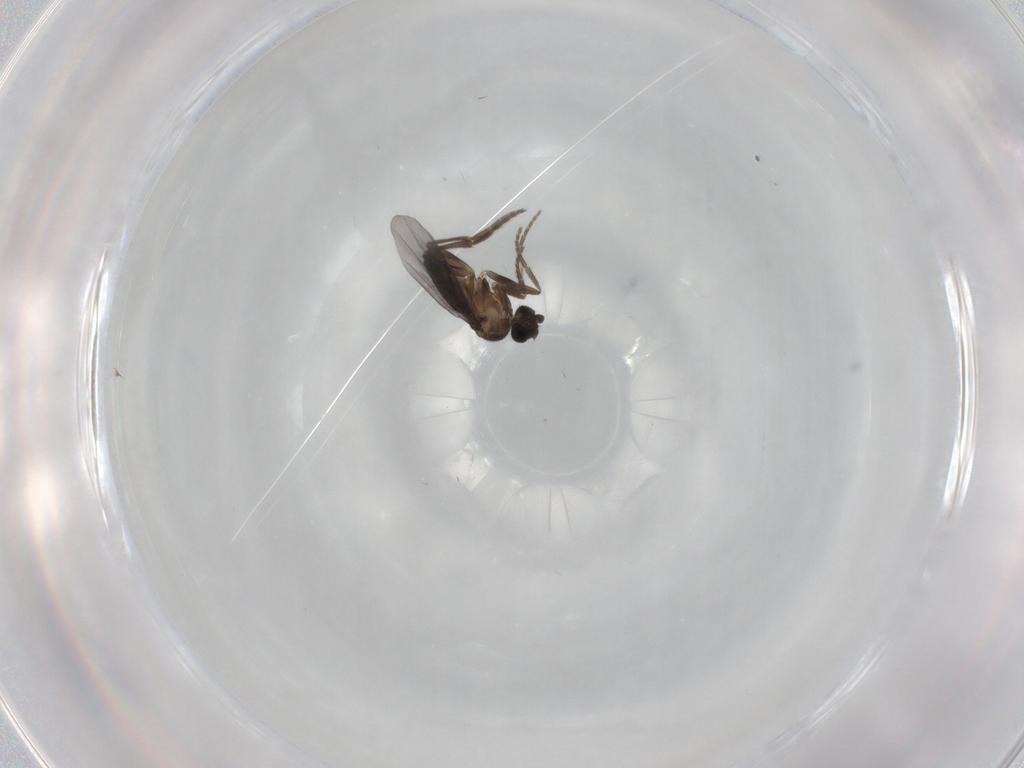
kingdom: Animalia
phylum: Arthropoda
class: Insecta
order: Diptera
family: Phoridae
